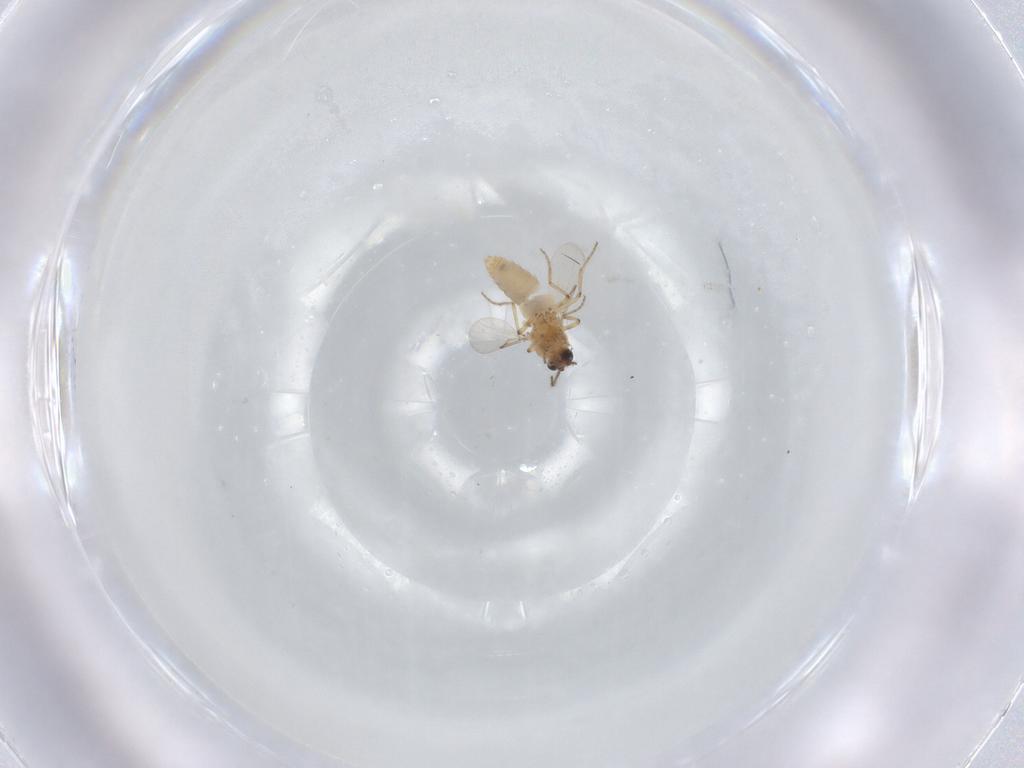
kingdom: Animalia
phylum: Arthropoda
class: Insecta
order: Diptera
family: Ceratopogonidae
